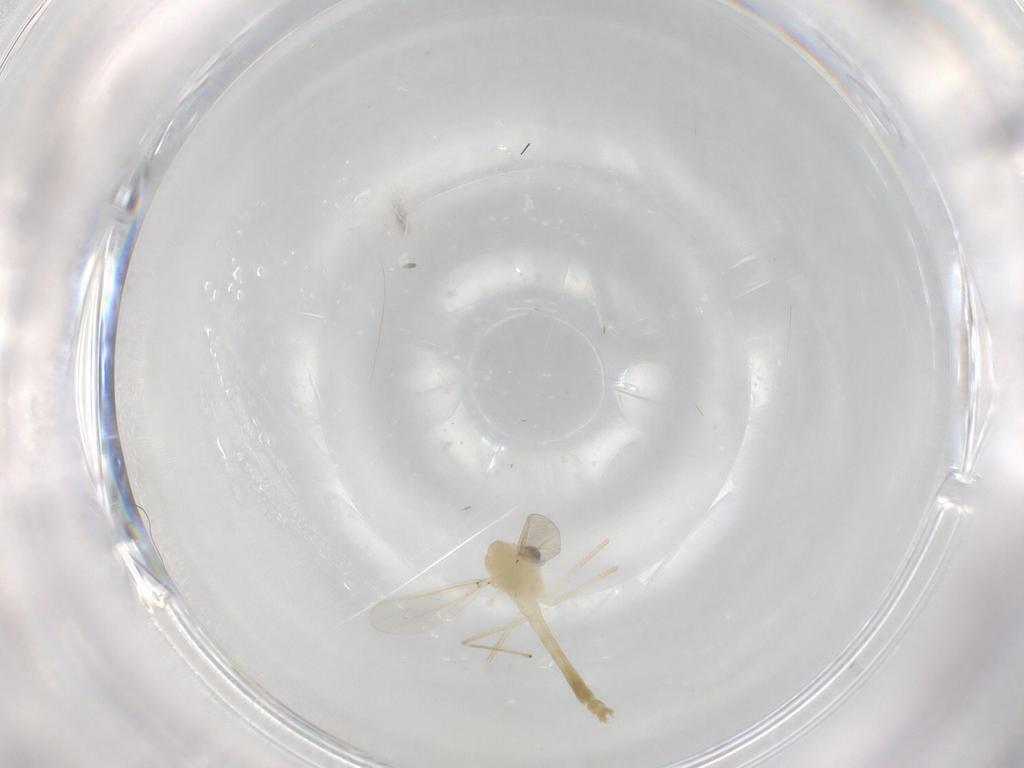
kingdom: Animalia
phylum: Arthropoda
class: Insecta
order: Diptera
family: Chironomidae
